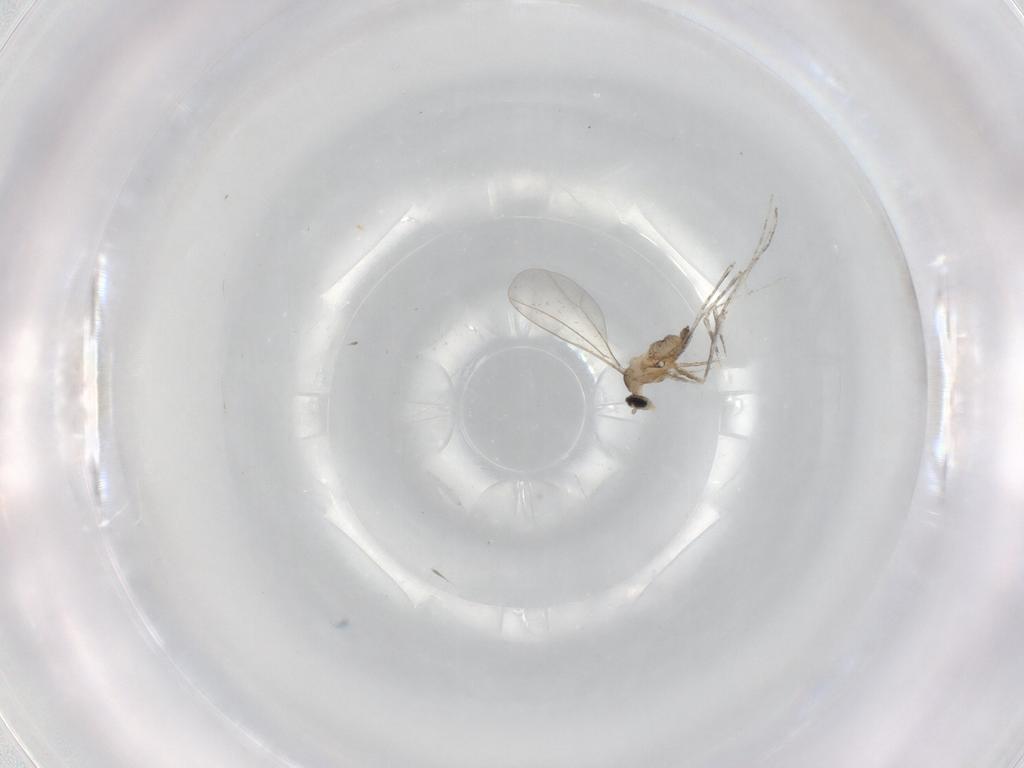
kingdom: Animalia
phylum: Arthropoda
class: Insecta
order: Diptera
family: Cecidomyiidae
